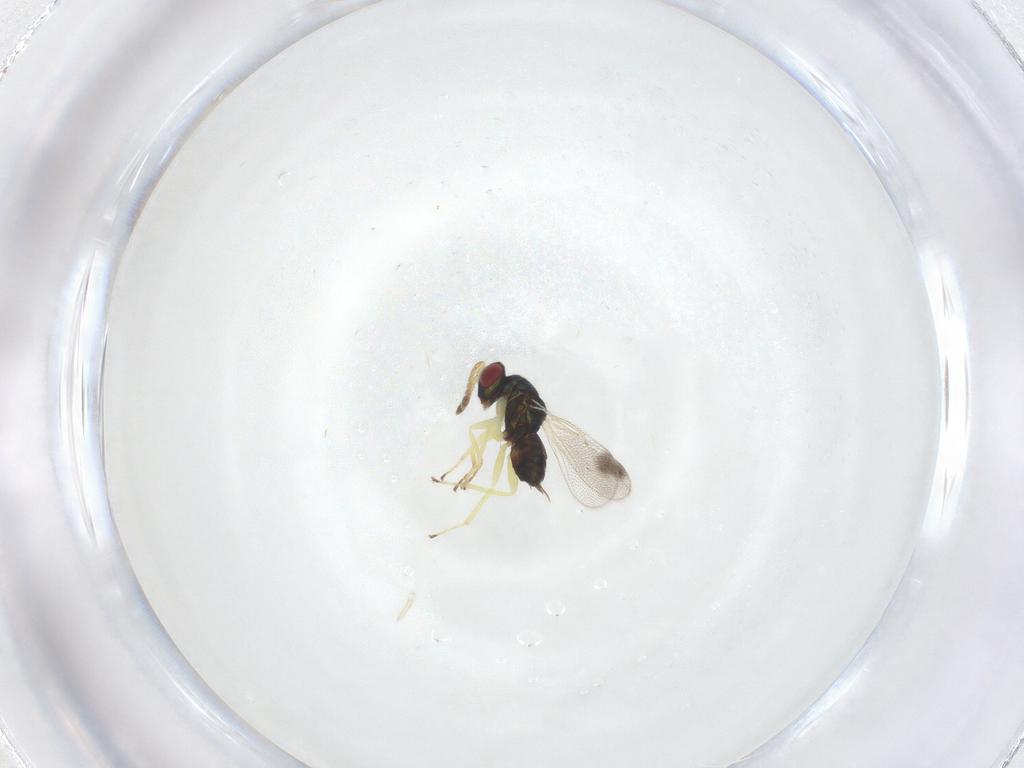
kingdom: Animalia
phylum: Arthropoda
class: Insecta
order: Hymenoptera
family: Eulophidae
